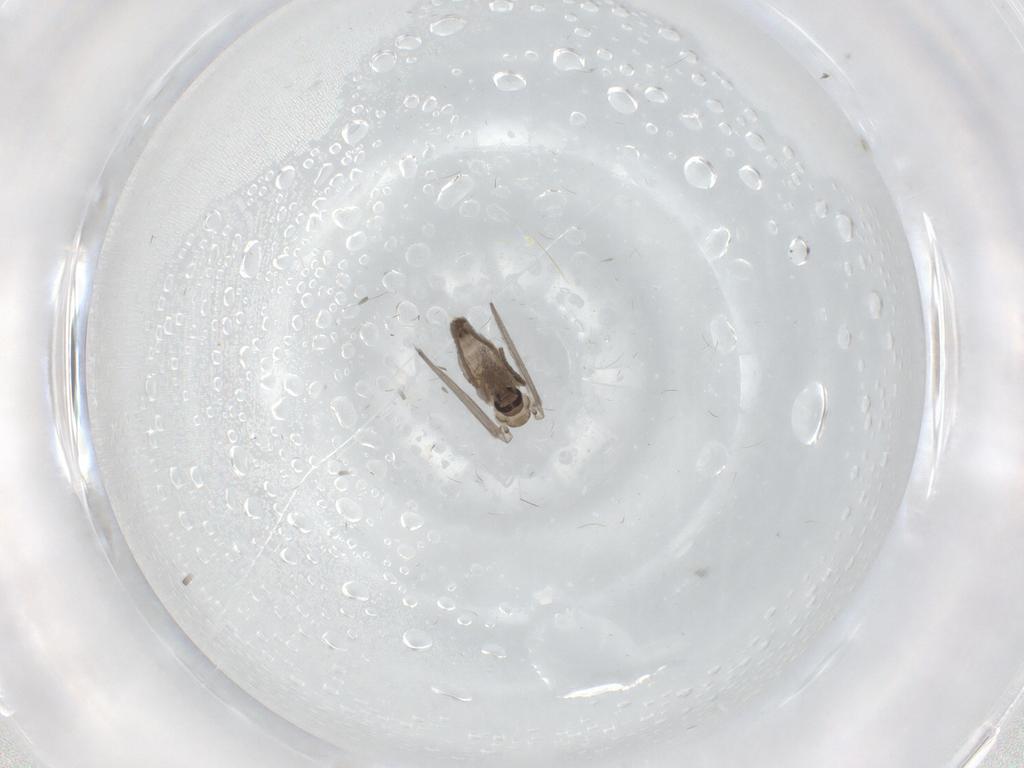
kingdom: Animalia
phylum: Arthropoda
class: Insecta
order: Diptera
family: Psychodidae
